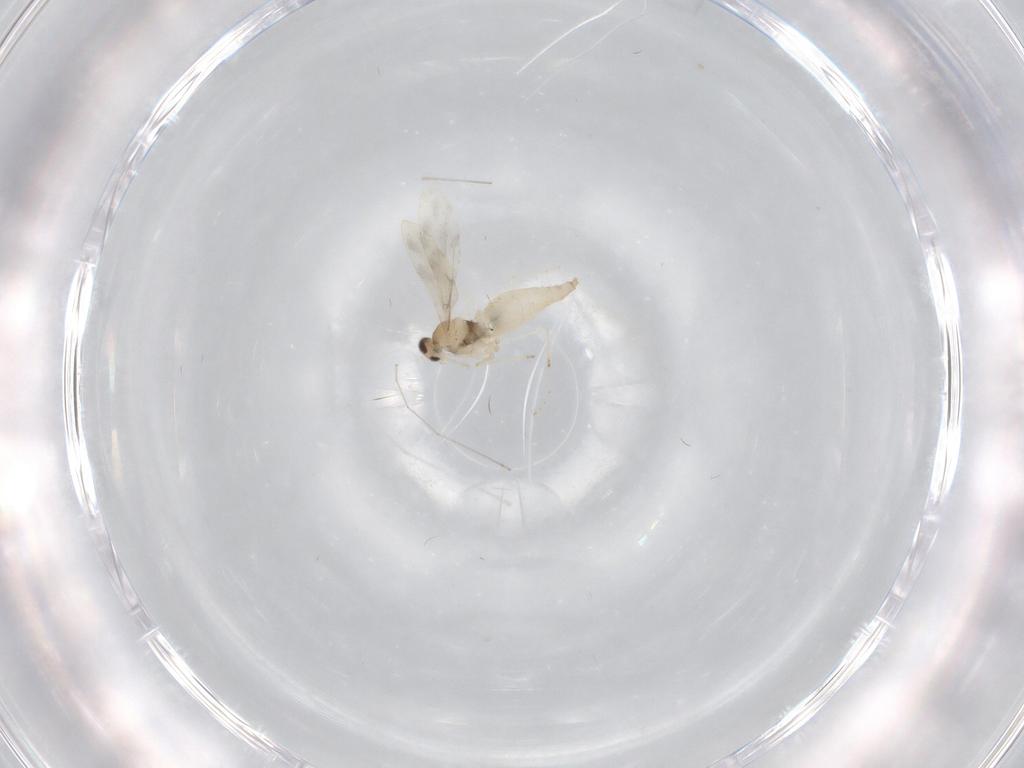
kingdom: Animalia
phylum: Arthropoda
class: Insecta
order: Diptera
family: Cecidomyiidae
